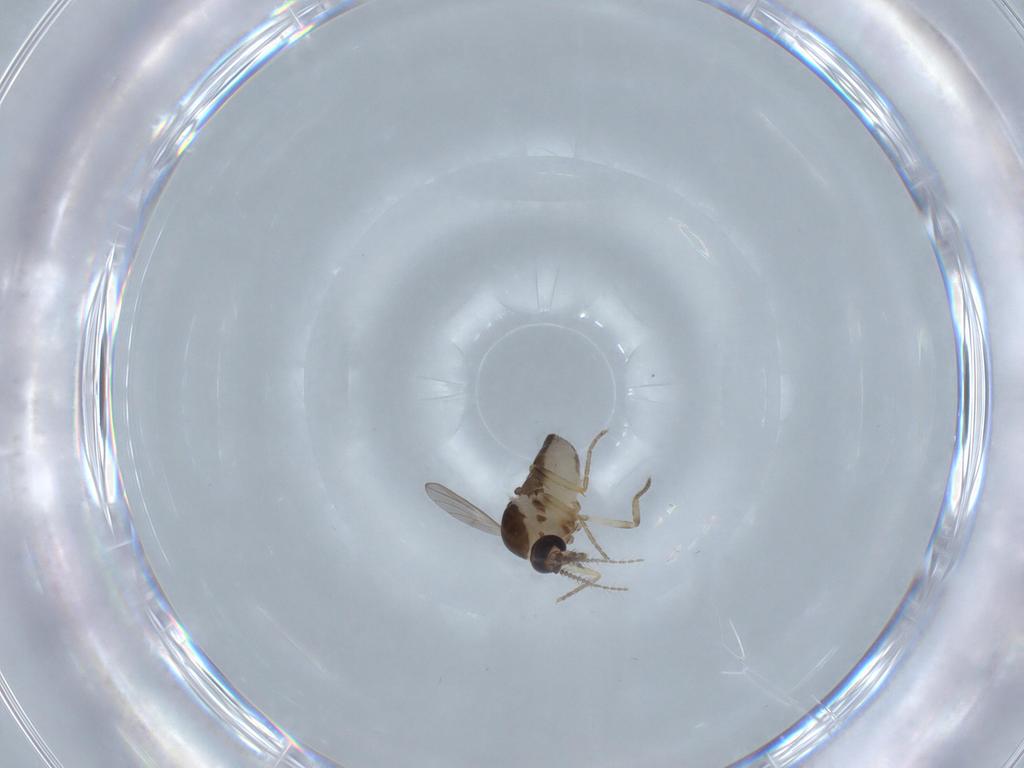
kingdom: Animalia
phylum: Arthropoda
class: Insecta
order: Diptera
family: Ceratopogonidae
